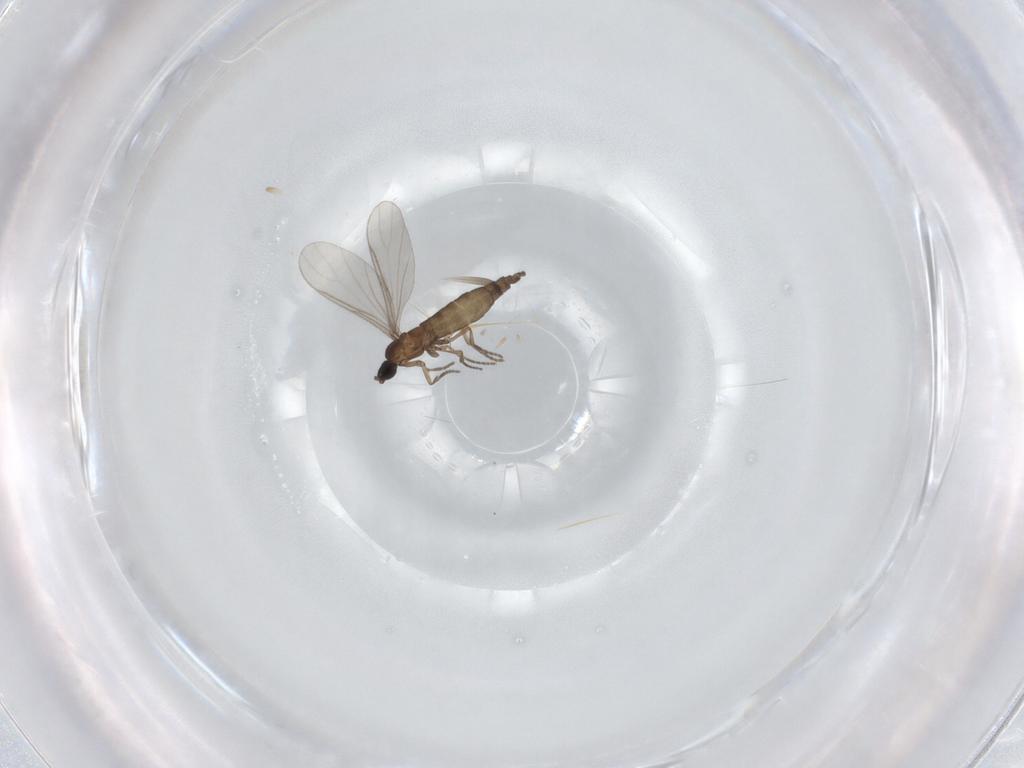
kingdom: Animalia
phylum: Arthropoda
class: Insecta
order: Diptera
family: Sciaridae
